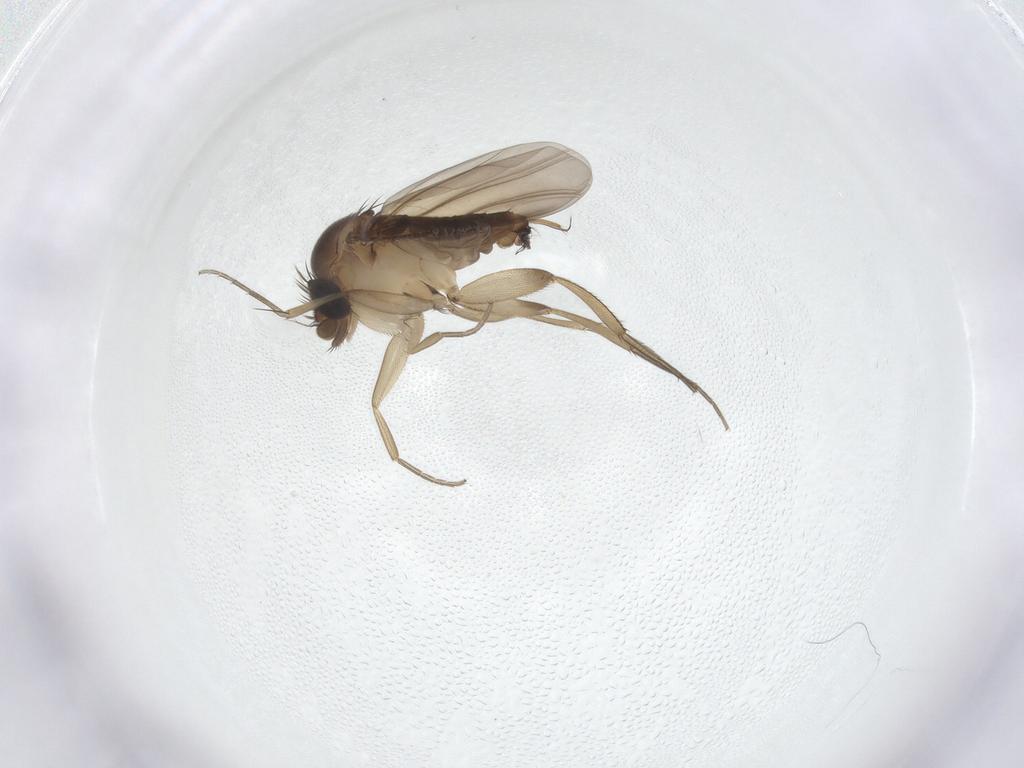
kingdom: Animalia
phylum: Arthropoda
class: Insecta
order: Diptera
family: Phoridae
